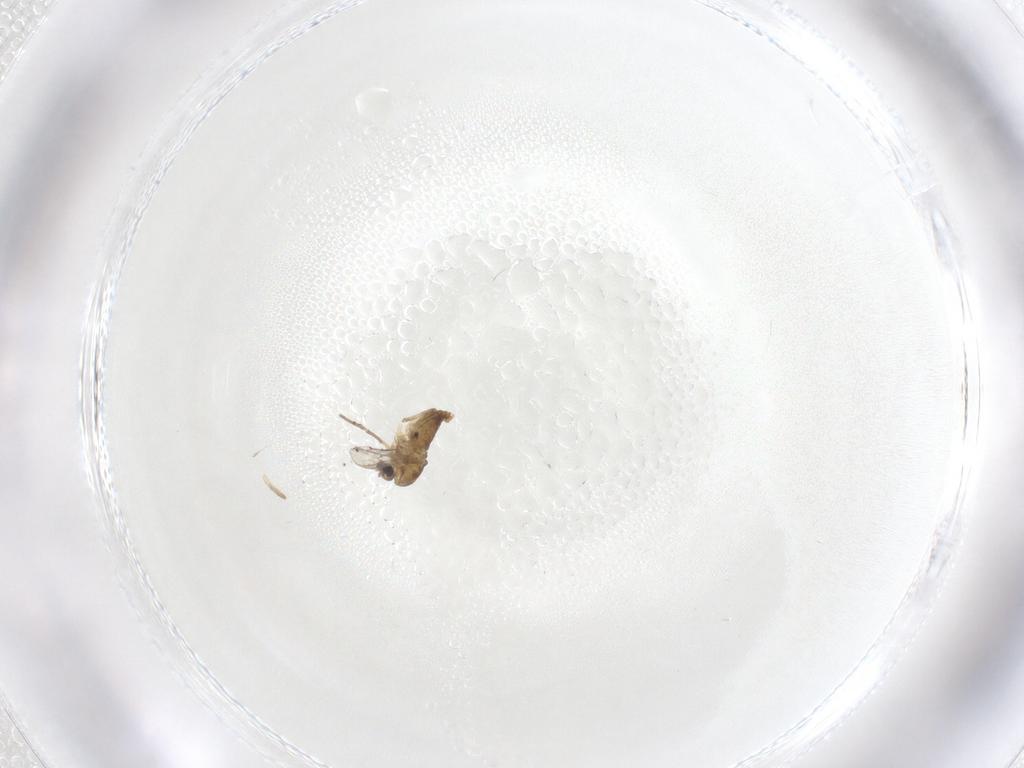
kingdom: Animalia
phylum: Arthropoda
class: Insecta
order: Diptera
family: Chironomidae
